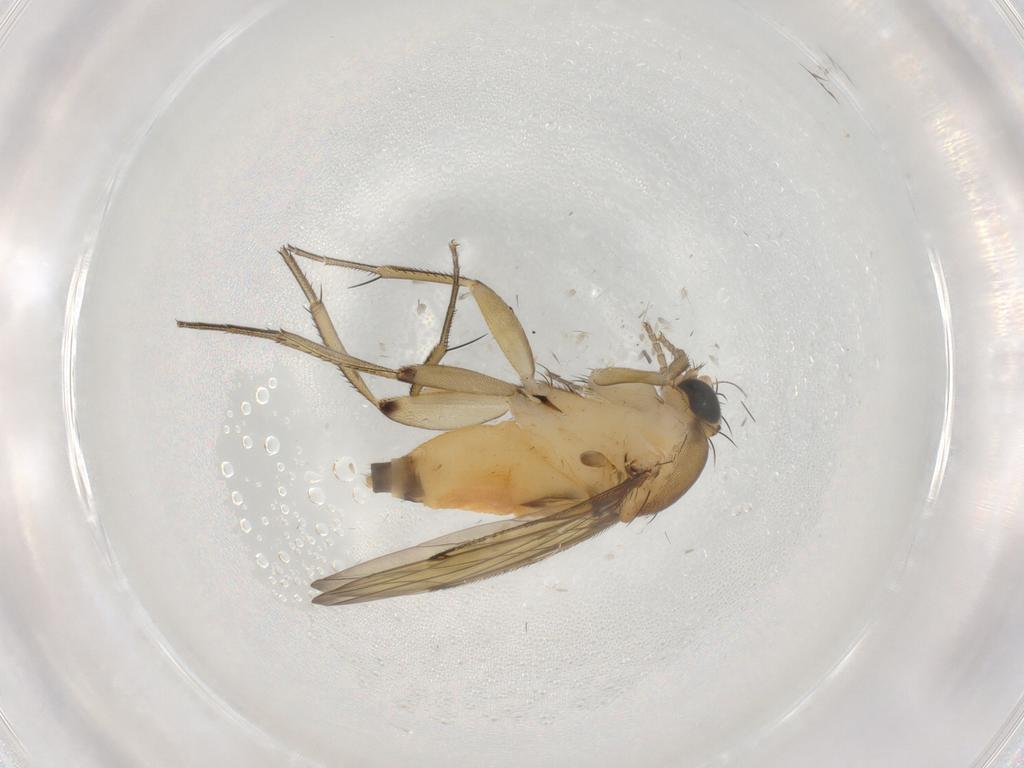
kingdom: Animalia
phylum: Arthropoda
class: Insecta
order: Diptera
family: Phoridae
